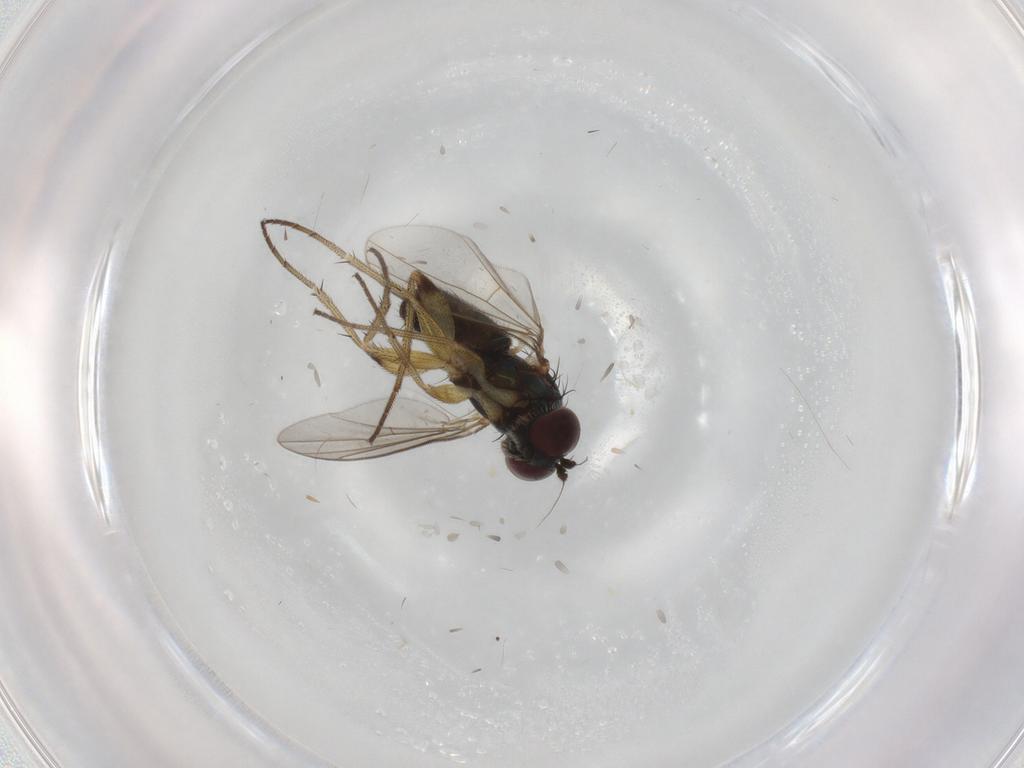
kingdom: Animalia
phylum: Arthropoda
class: Insecta
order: Diptera
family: Dolichopodidae
